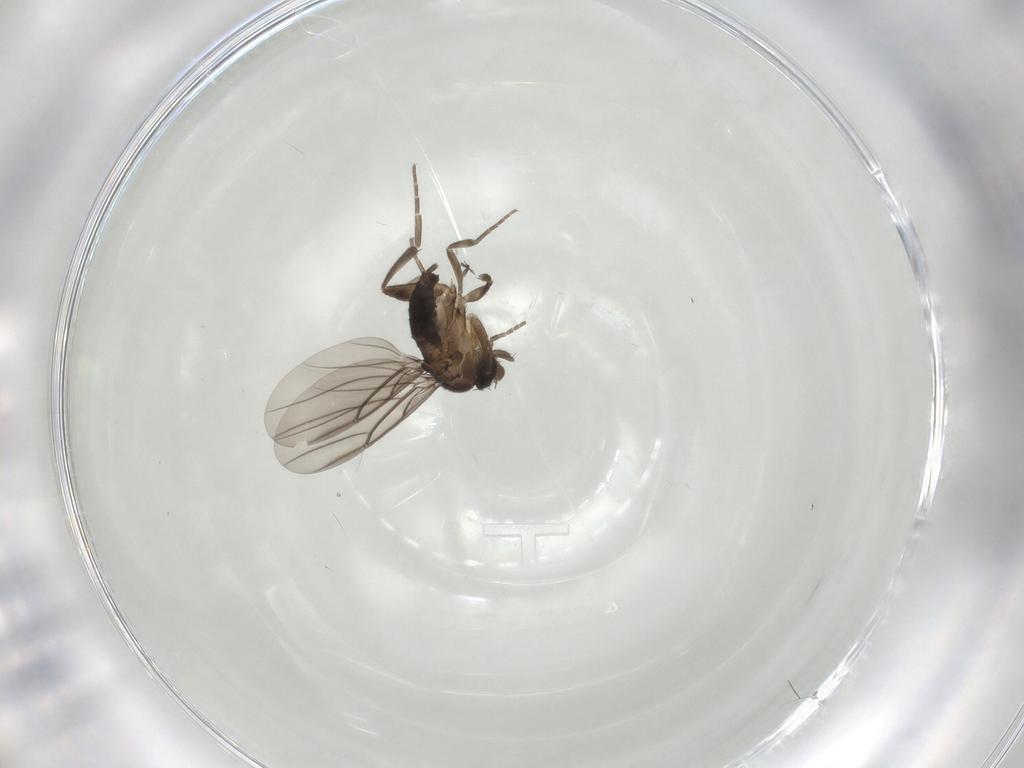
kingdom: Animalia
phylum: Arthropoda
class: Insecta
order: Diptera
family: Phoridae
